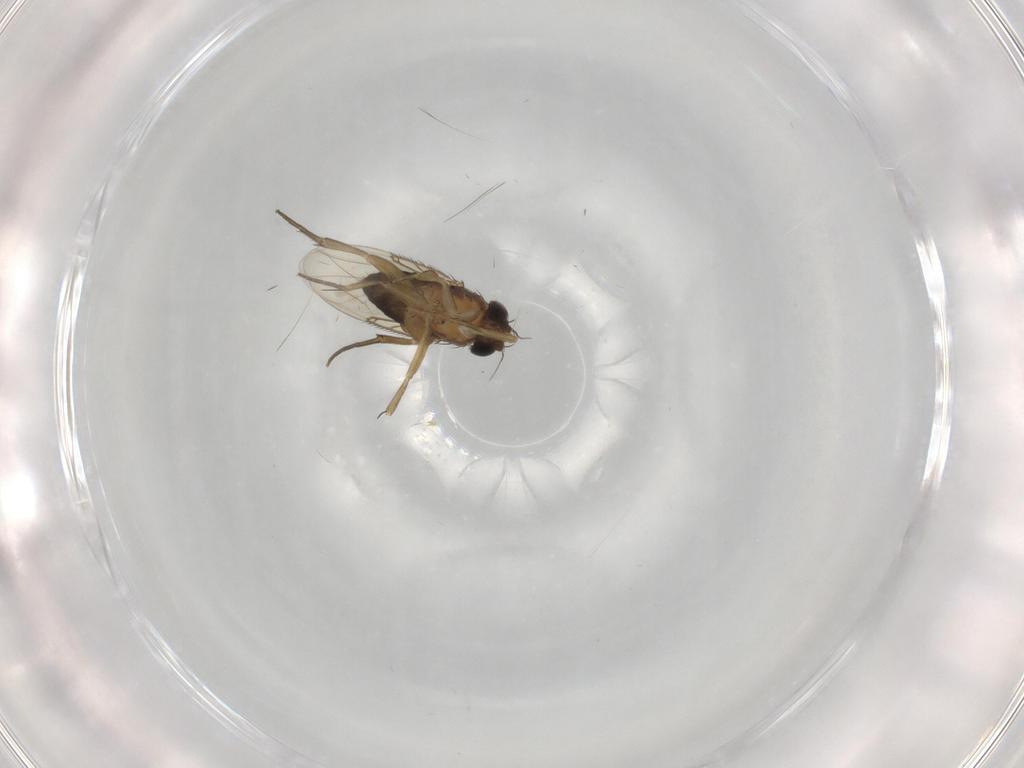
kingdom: Animalia
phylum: Arthropoda
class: Insecta
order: Diptera
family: Phoridae
